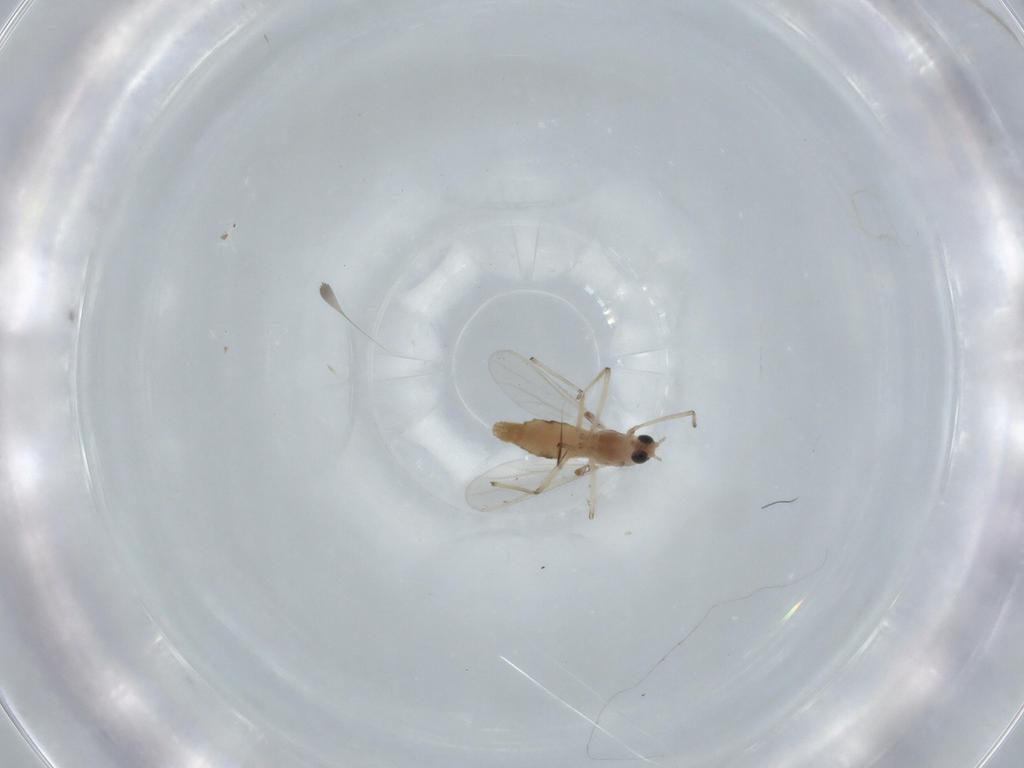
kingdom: Animalia
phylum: Arthropoda
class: Insecta
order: Diptera
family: Chironomidae
